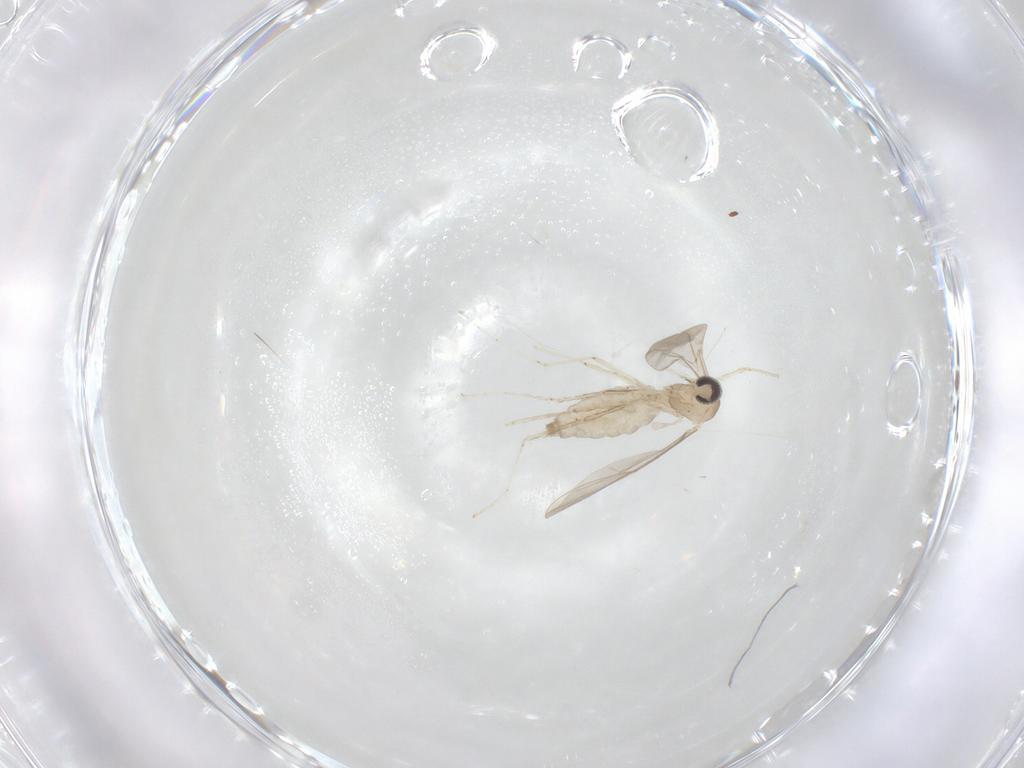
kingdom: Animalia
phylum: Arthropoda
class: Insecta
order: Diptera
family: Cecidomyiidae
